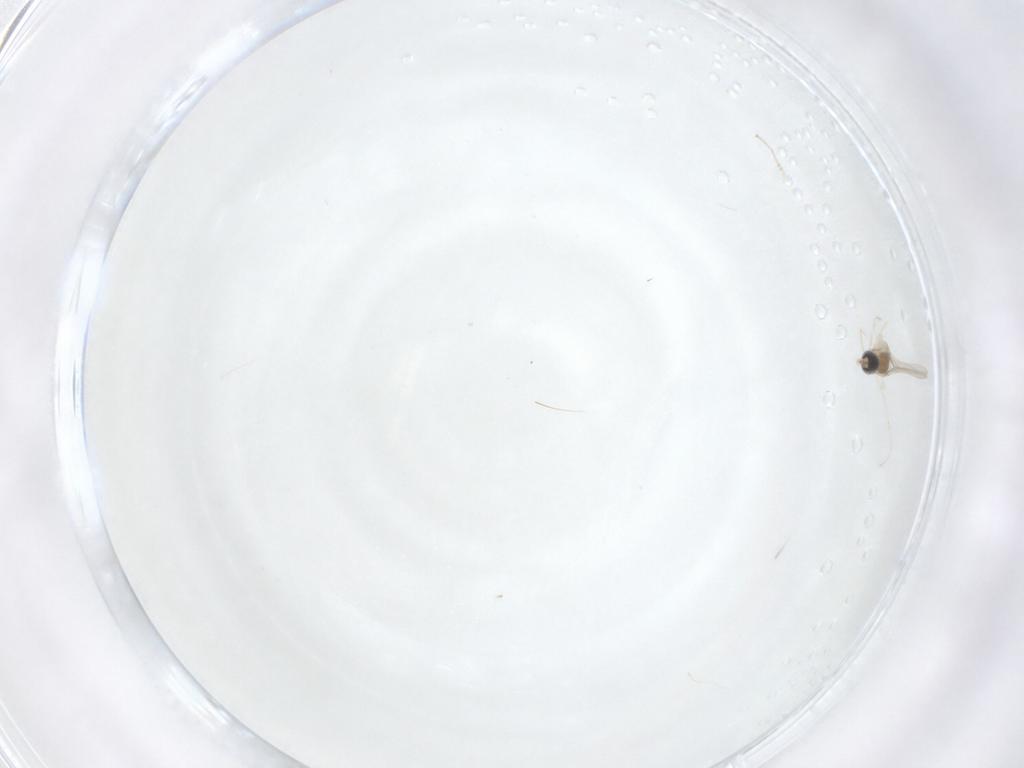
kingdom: Animalia
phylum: Arthropoda
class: Insecta
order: Diptera
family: Cecidomyiidae
